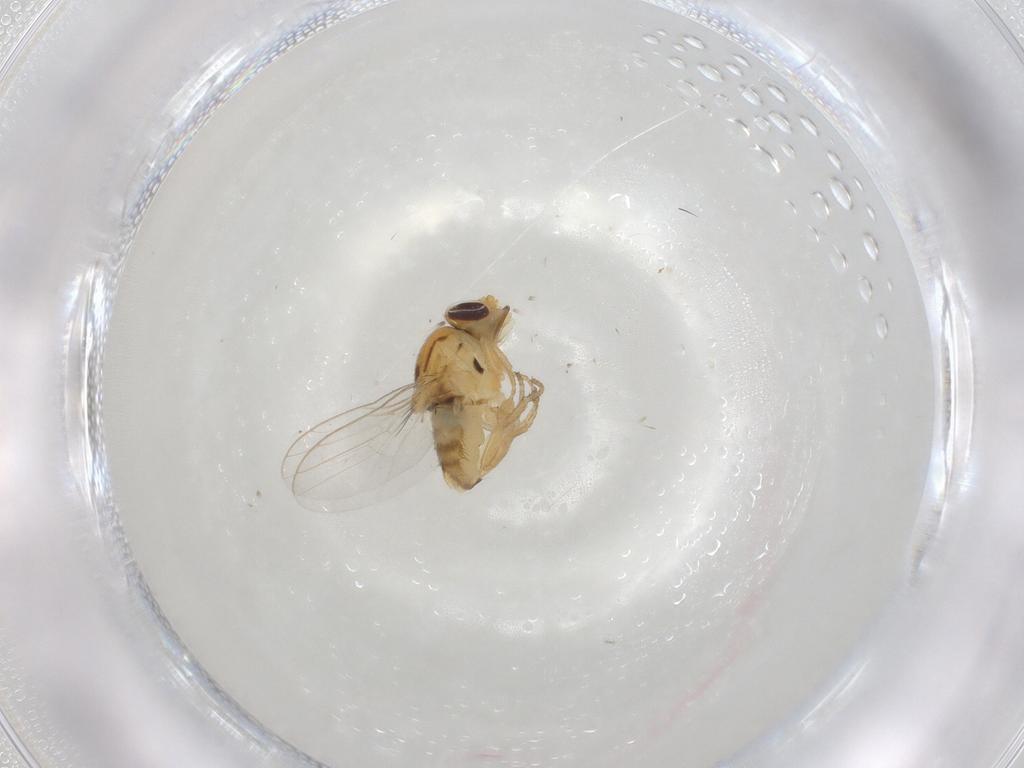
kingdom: Animalia
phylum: Arthropoda
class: Insecta
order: Diptera
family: Chloropidae
